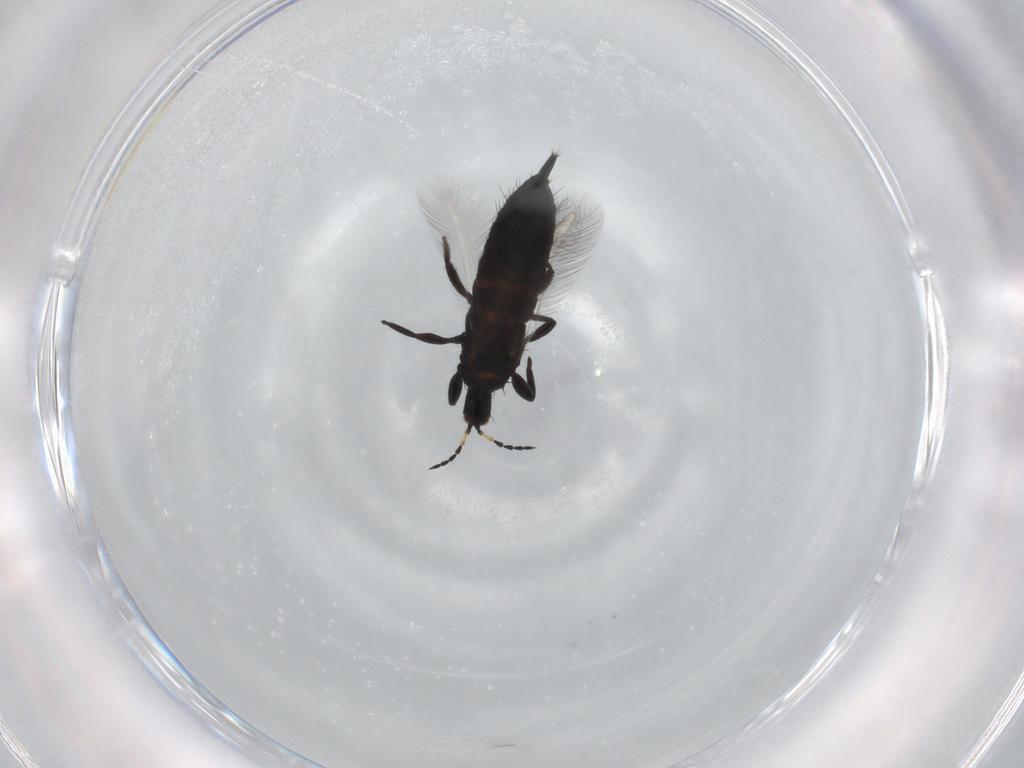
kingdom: Animalia
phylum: Arthropoda
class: Insecta
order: Thysanoptera
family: Phlaeothripidae
